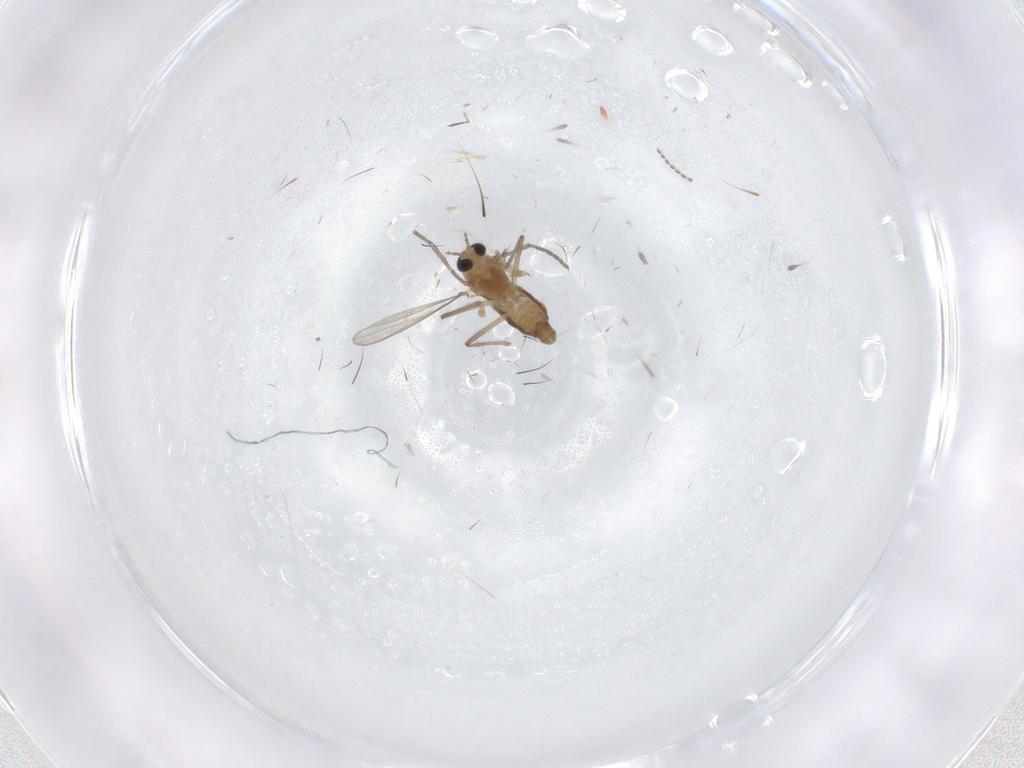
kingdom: Animalia
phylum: Arthropoda
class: Insecta
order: Diptera
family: Chironomidae
